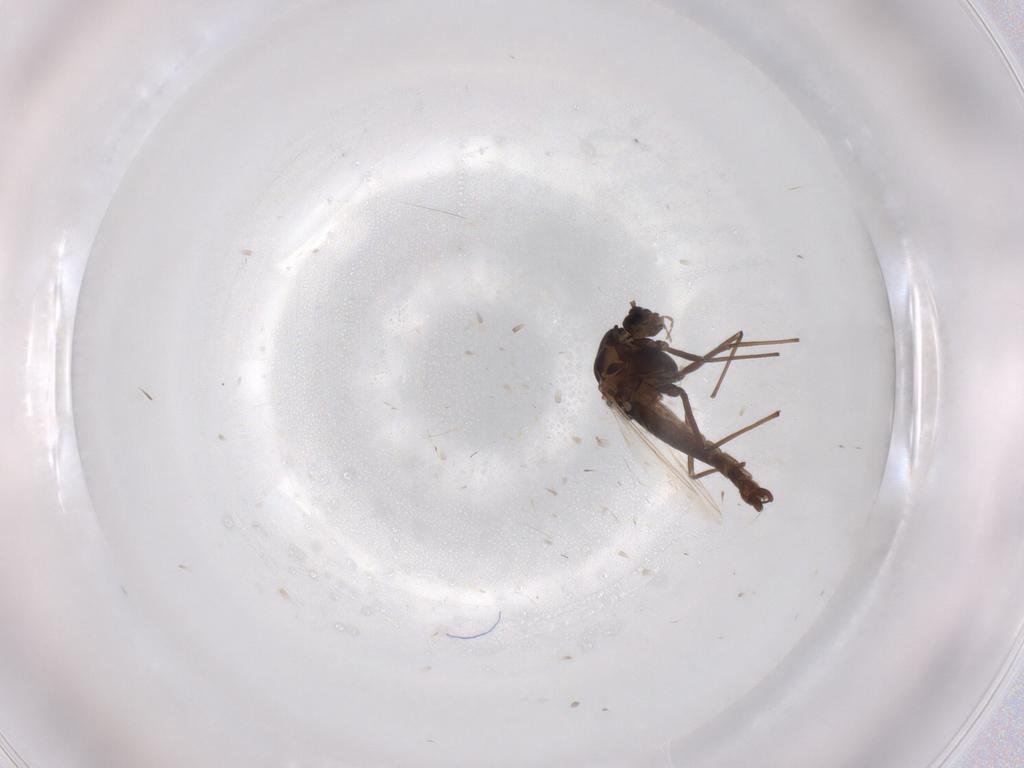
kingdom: Animalia
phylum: Arthropoda
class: Insecta
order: Diptera
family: Chironomidae
